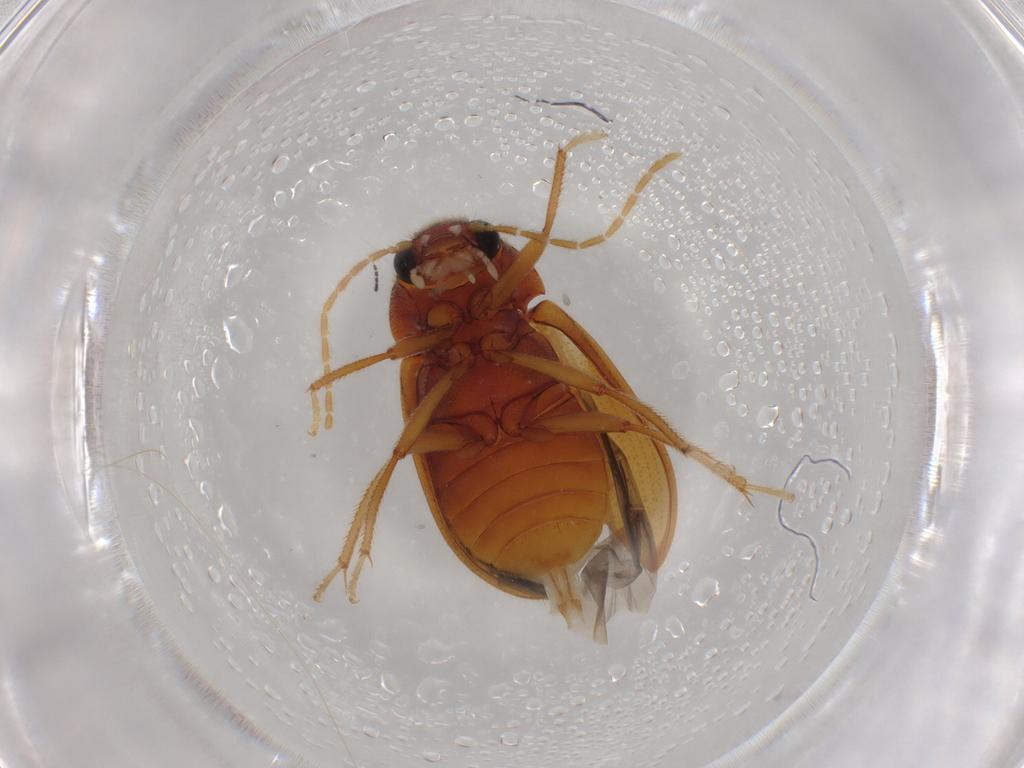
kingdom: Animalia
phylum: Arthropoda
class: Insecta
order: Coleoptera
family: Ptilodactylidae
